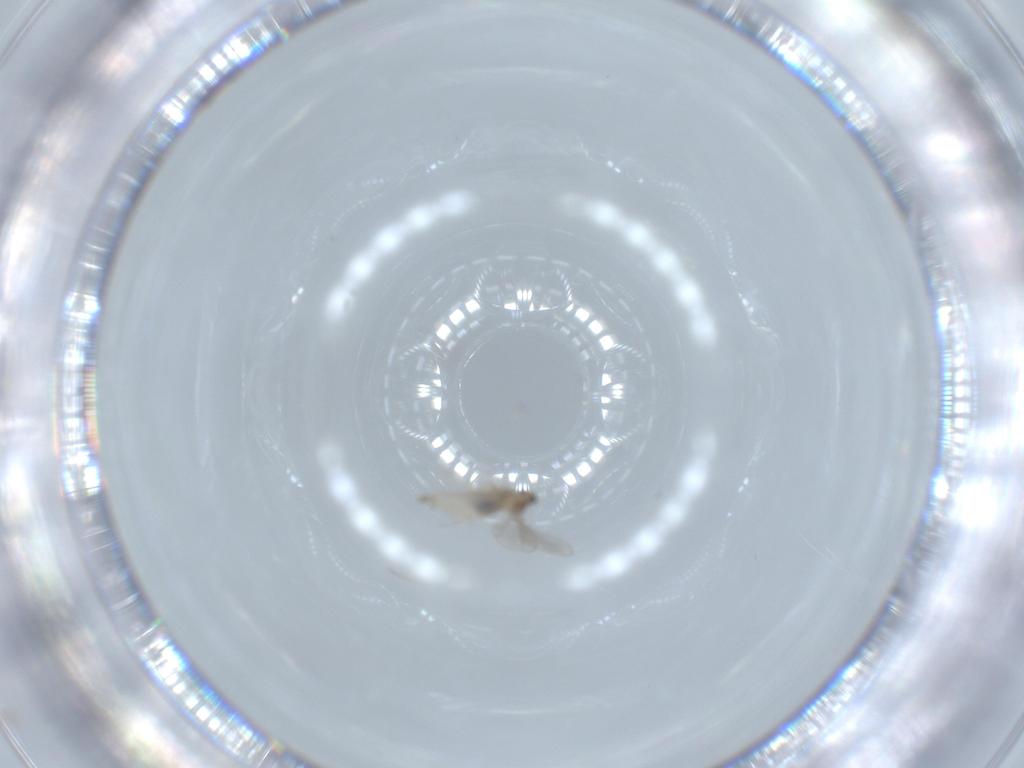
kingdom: Animalia
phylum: Arthropoda
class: Insecta
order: Diptera
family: Cecidomyiidae
